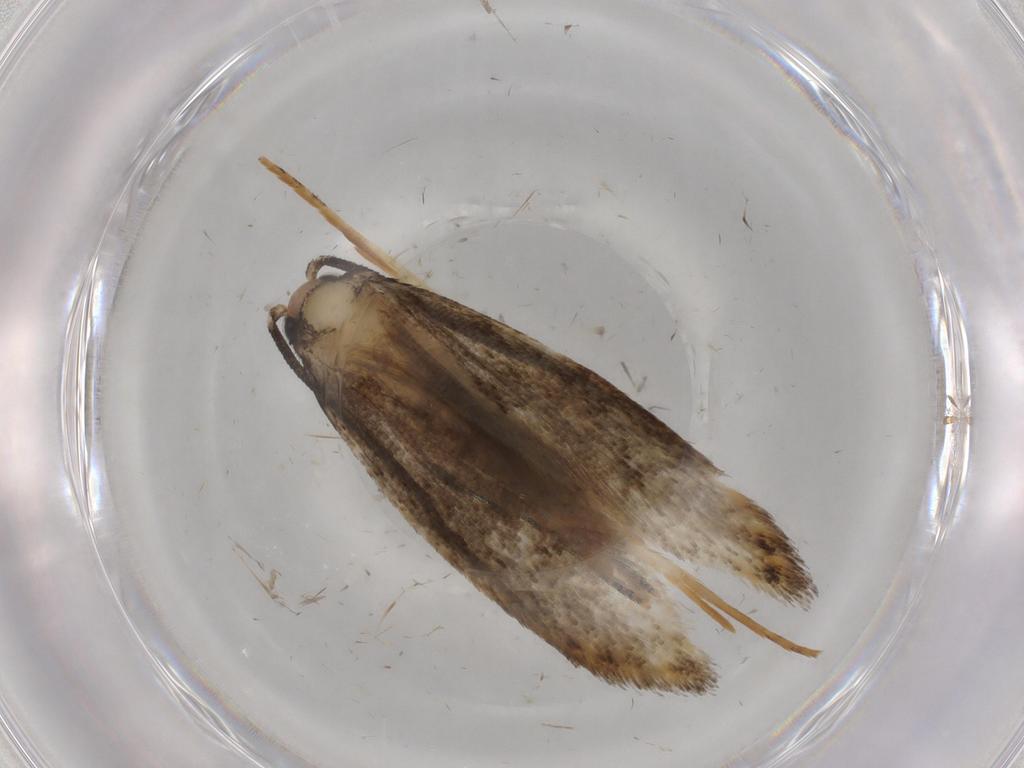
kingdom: Animalia
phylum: Arthropoda
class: Insecta
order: Lepidoptera
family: Tineidae
